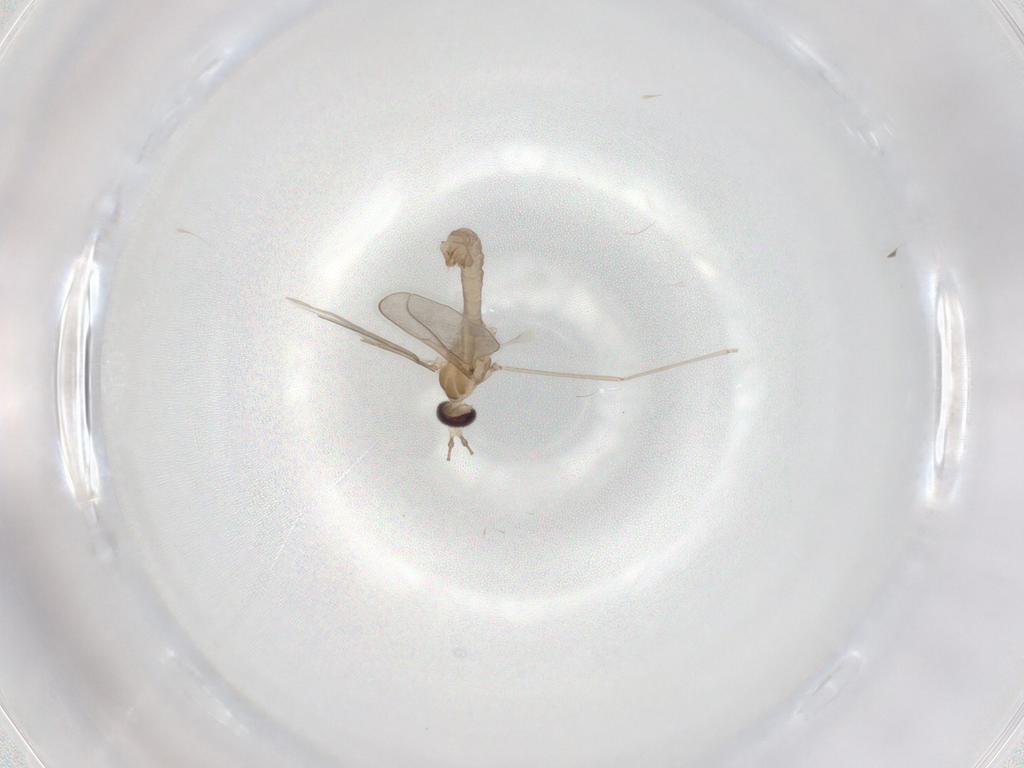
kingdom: Animalia
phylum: Arthropoda
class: Insecta
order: Diptera
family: Cecidomyiidae
